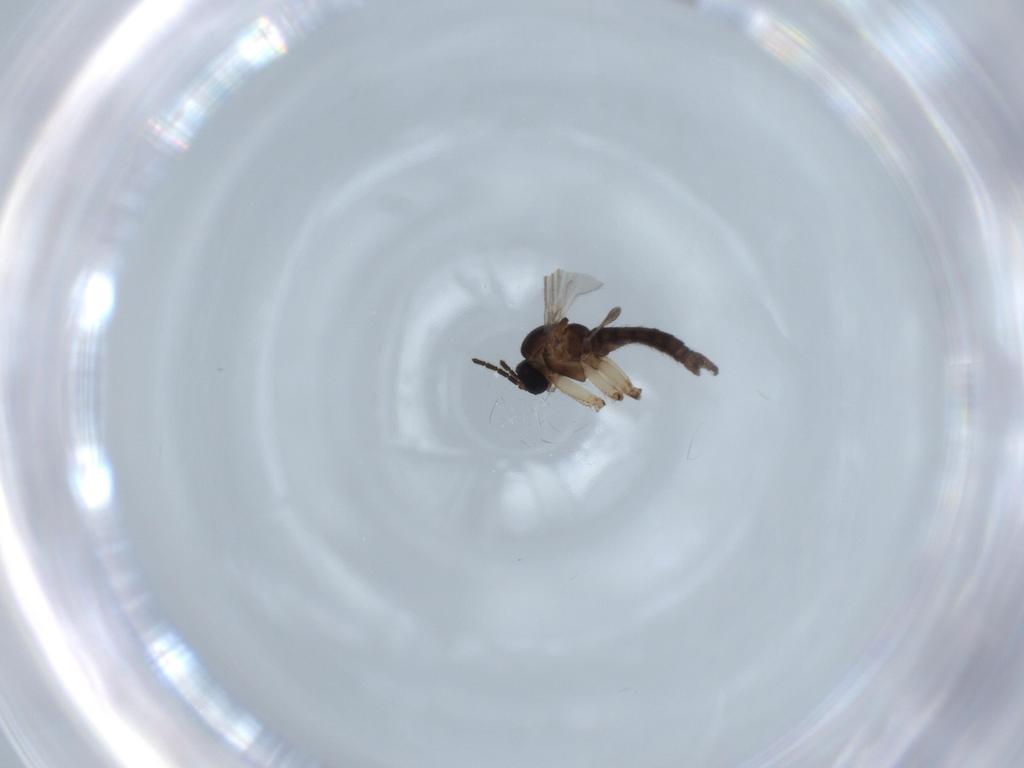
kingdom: Animalia
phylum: Arthropoda
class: Insecta
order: Diptera
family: Sciaridae
